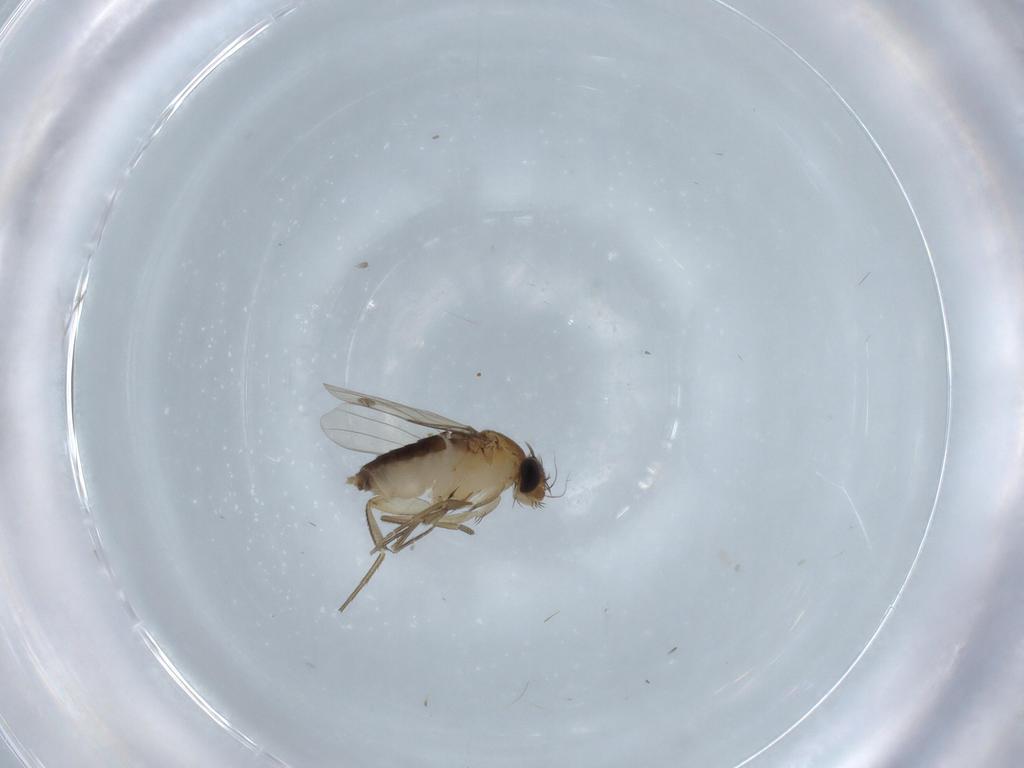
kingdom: Animalia
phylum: Arthropoda
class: Insecta
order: Diptera
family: Phoridae
